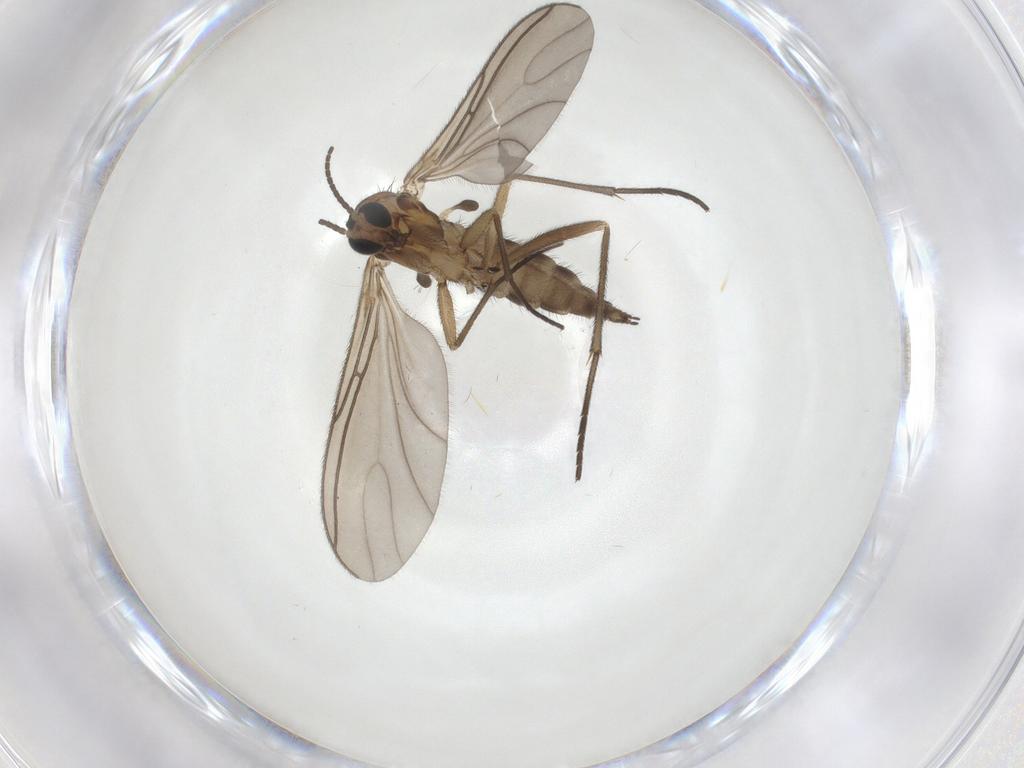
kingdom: Animalia
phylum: Arthropoda
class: Insecta
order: Diptera
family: Sciaridae
